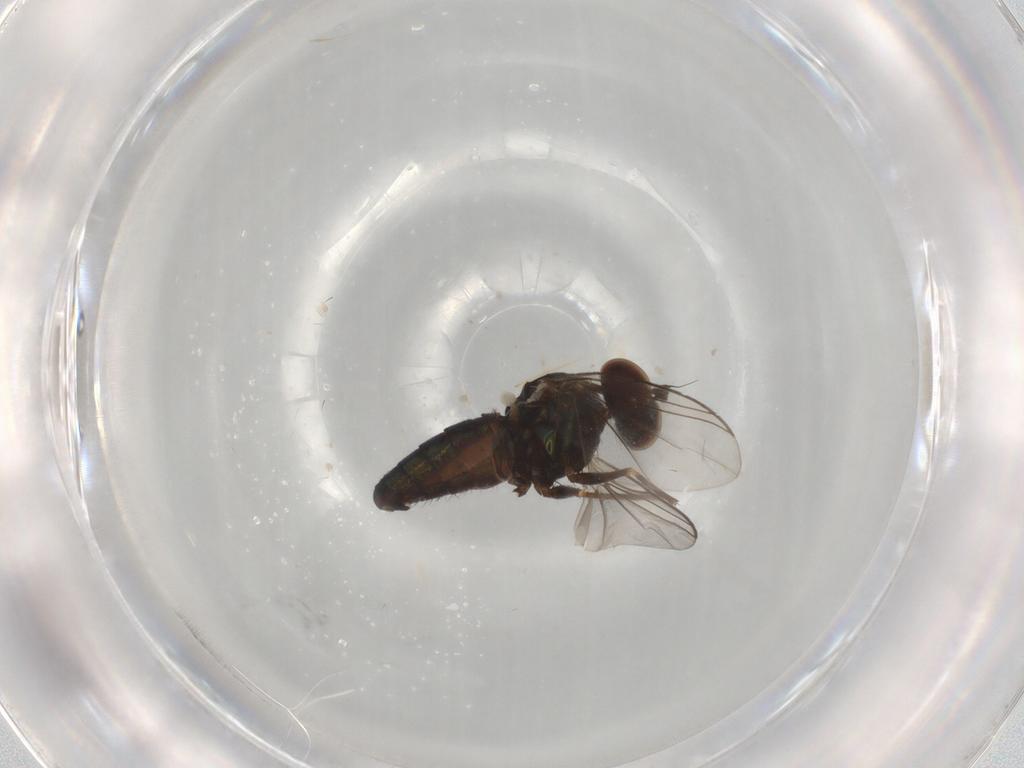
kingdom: Animalia
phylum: Arthropoda
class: Insecta
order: Diptera
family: Dolichopodidae
